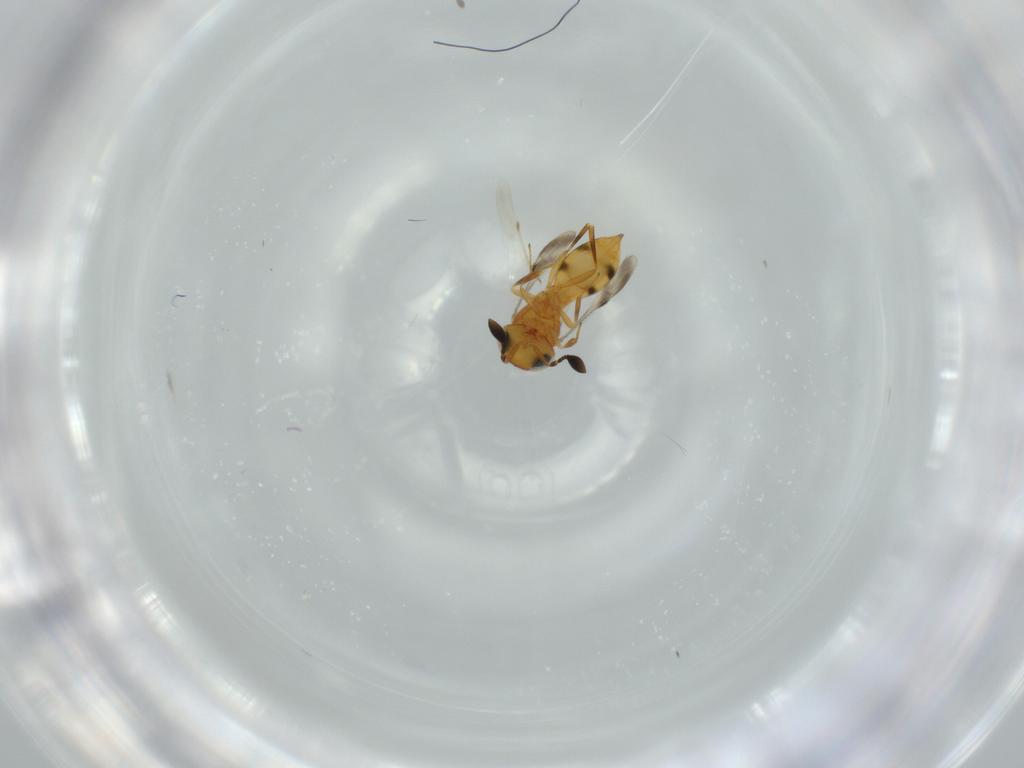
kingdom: Animalia
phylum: Arthropoda
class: Insecta
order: Hymenoptera
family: Scelionidae
